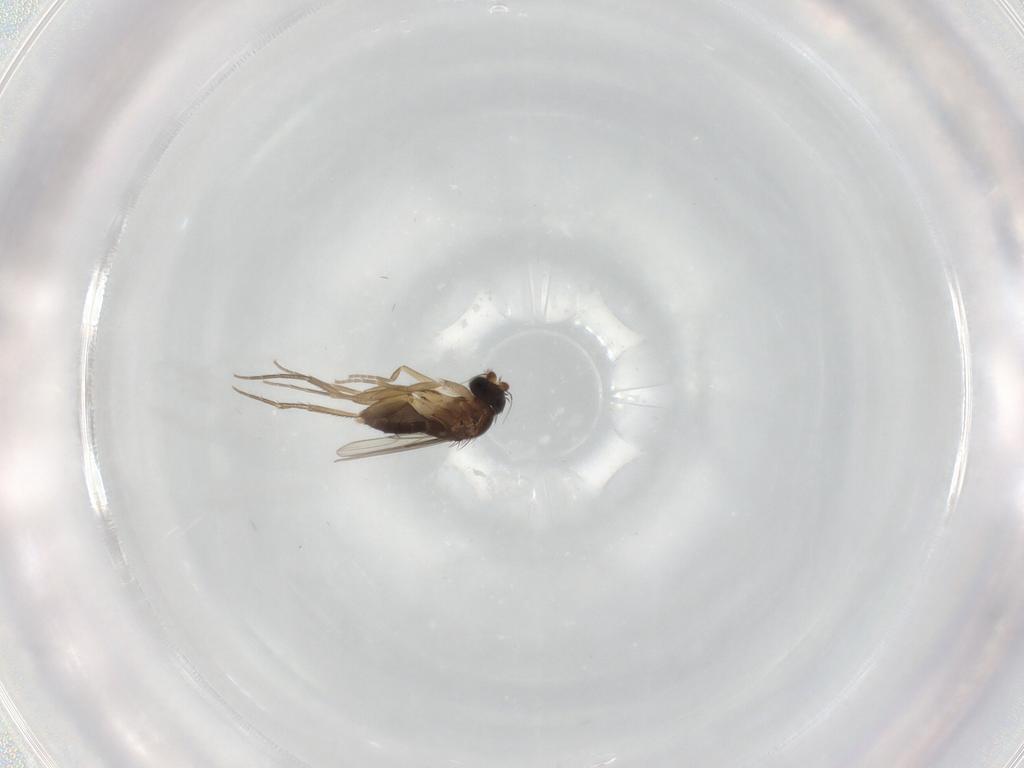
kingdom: Animalia
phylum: Arthropoda
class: Insecta
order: Diptera
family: Phoridae
